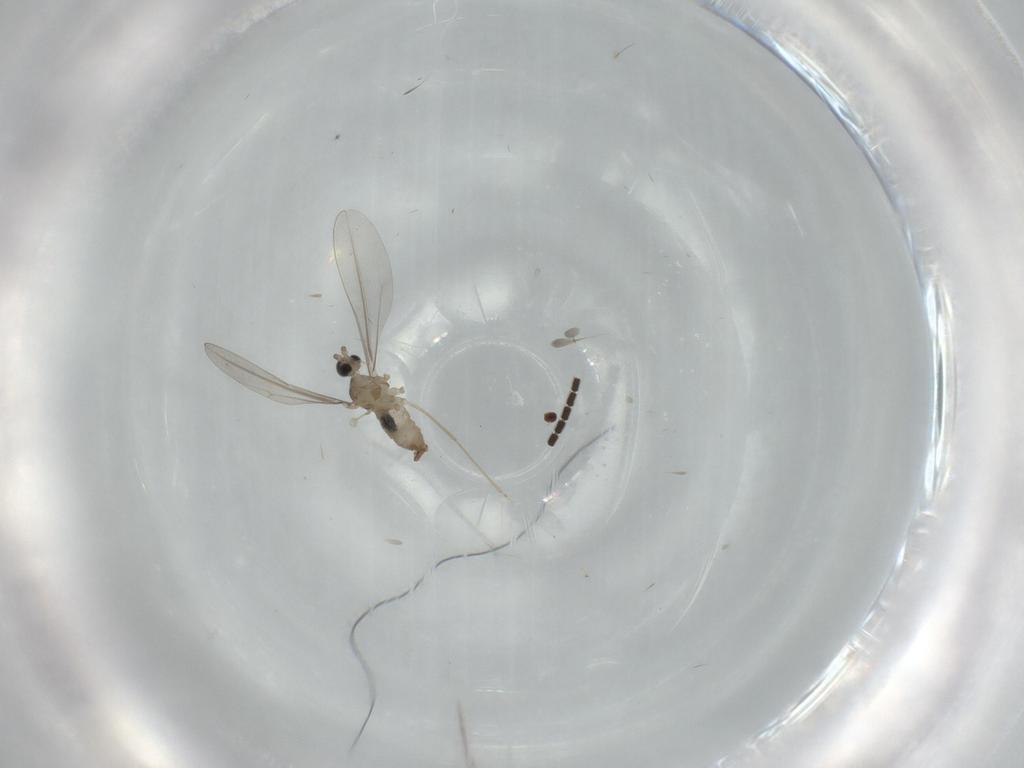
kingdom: Animalia
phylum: Arthropoda
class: Insecta
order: Diptera
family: Cecidomyiidae
